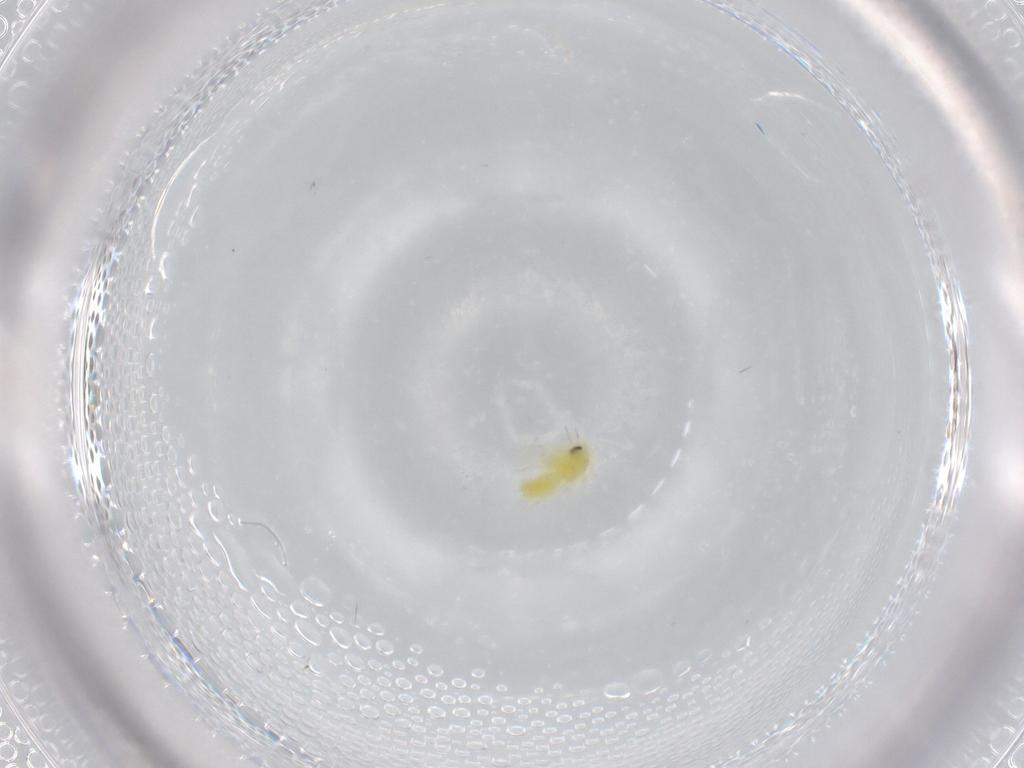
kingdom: Animalia
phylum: Arthropoda
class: Insecta
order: Hemiptera
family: Aleyrodidae
